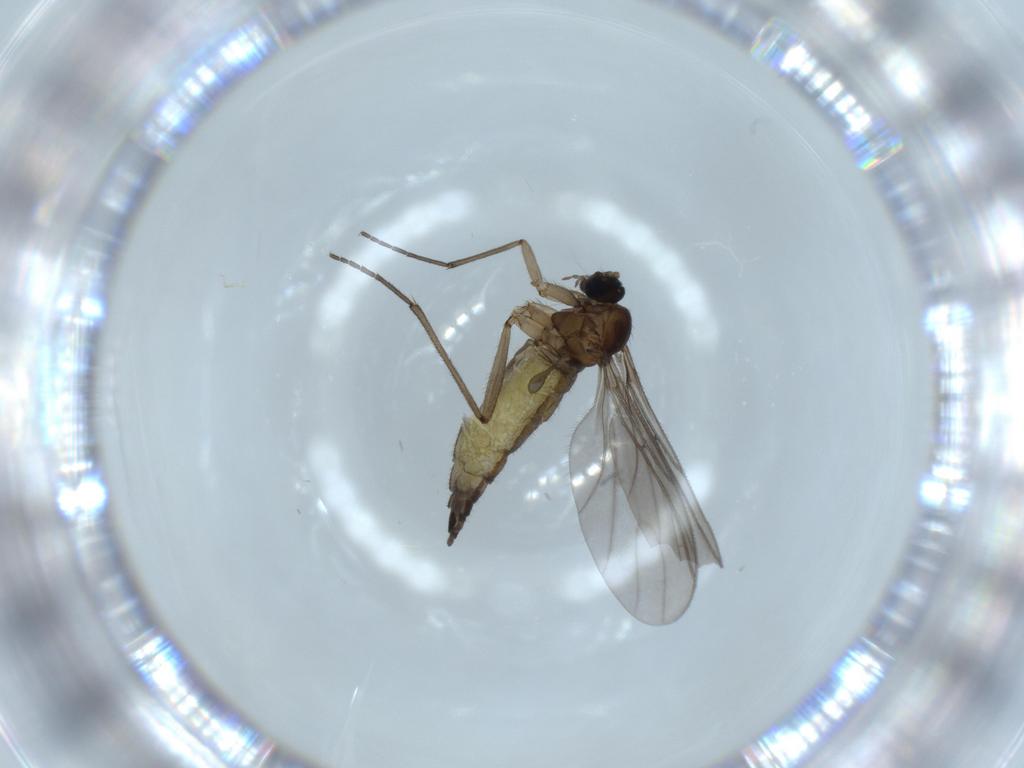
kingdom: Animalia
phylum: Arthropoda
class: Insecta
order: Diptera
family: Sciaridae
